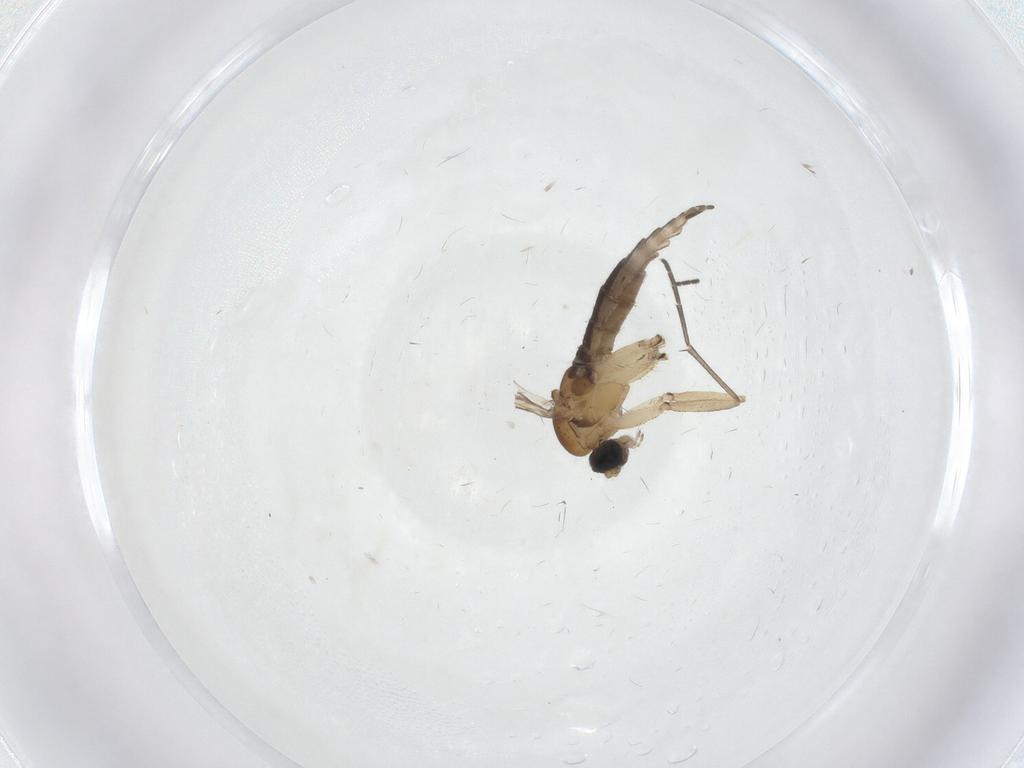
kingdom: Animalia
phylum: Arthropoda
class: Insecta
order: Diptera
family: Sciaridae
